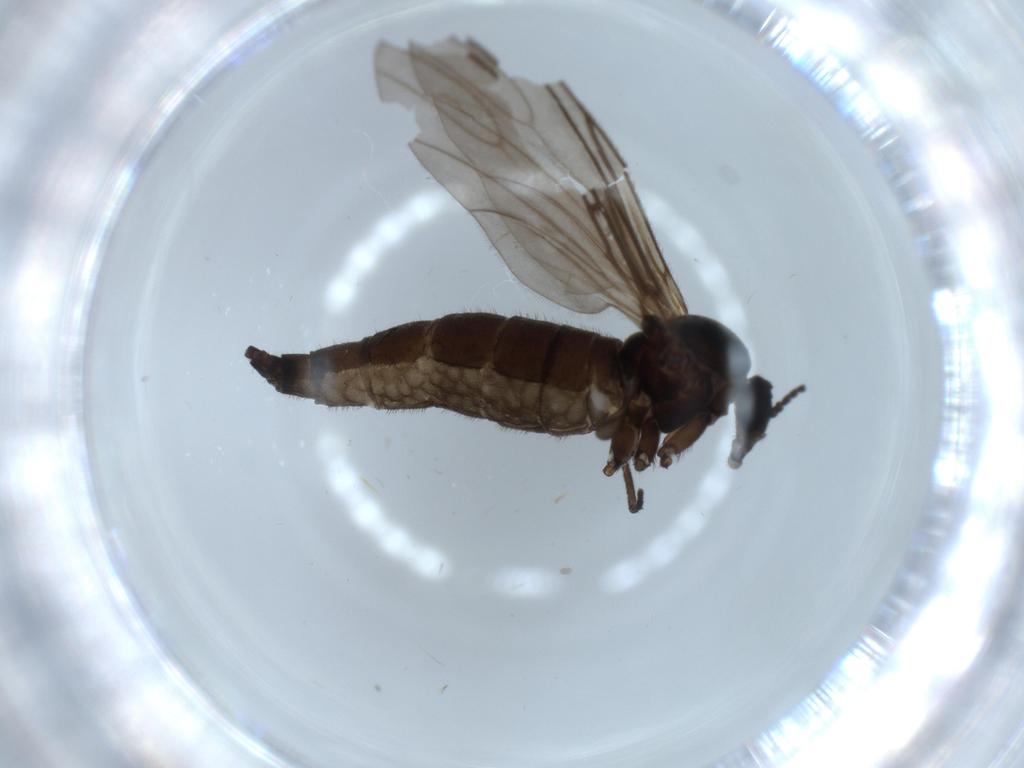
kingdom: Animalia
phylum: Arthropoda
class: Insecta
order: Diptera
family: Sciaridae
